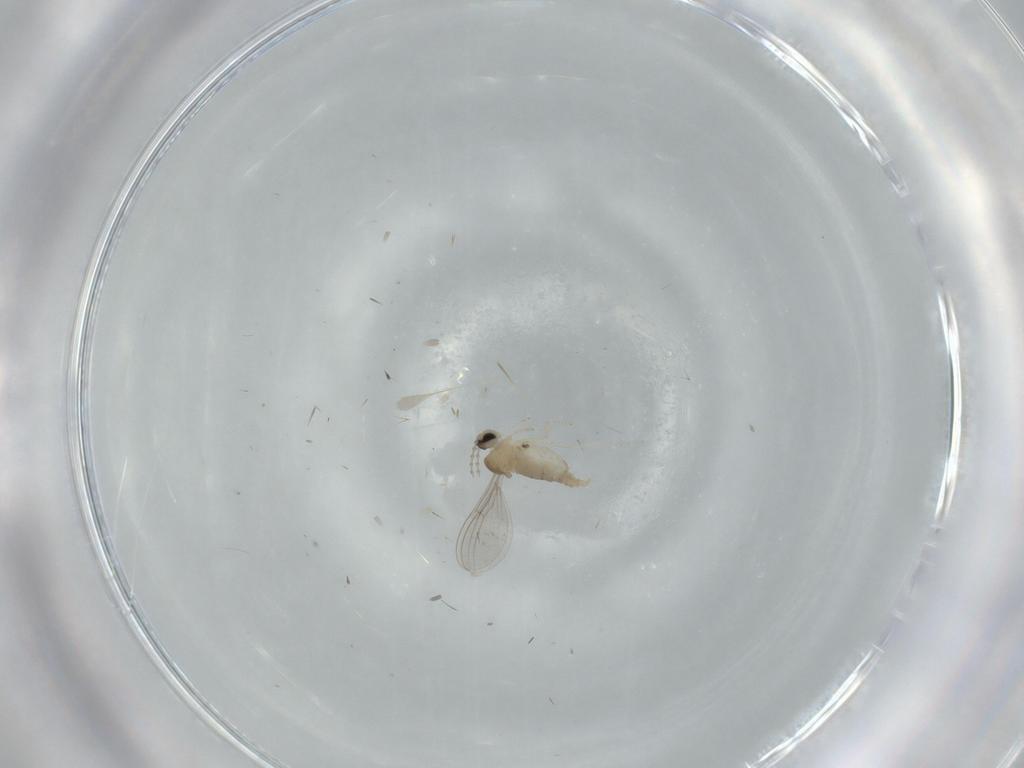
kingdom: Animalia
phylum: Arthropoda
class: Insecta
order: Diptera
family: Cecidomyiidae
